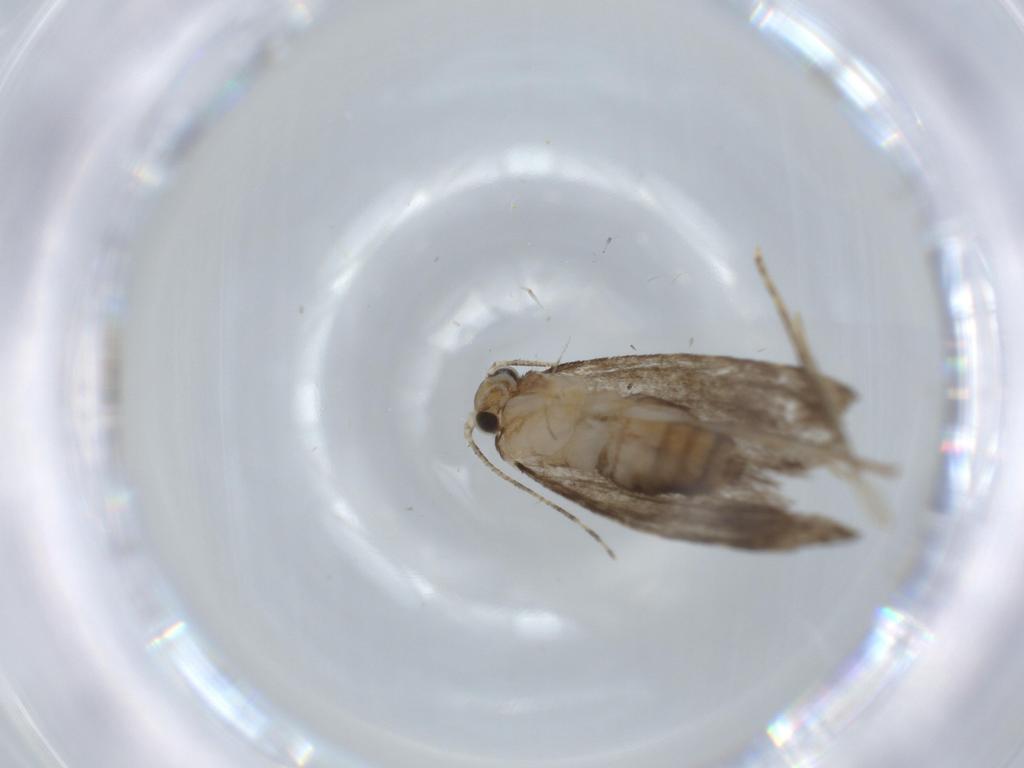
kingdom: Animalia
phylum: Arthropoda
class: Insecta
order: Lepidoptera
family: Tineidae
